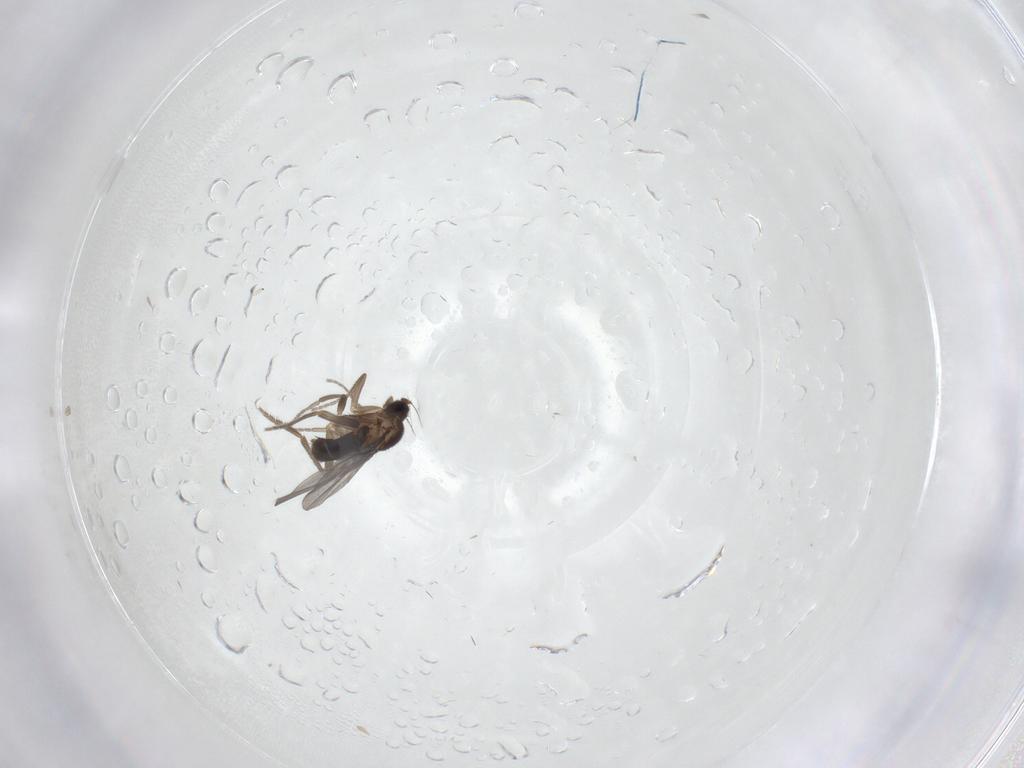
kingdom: Animalia
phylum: Arthropoda
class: Insecta
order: Diptera
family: Cecidomyiidae
